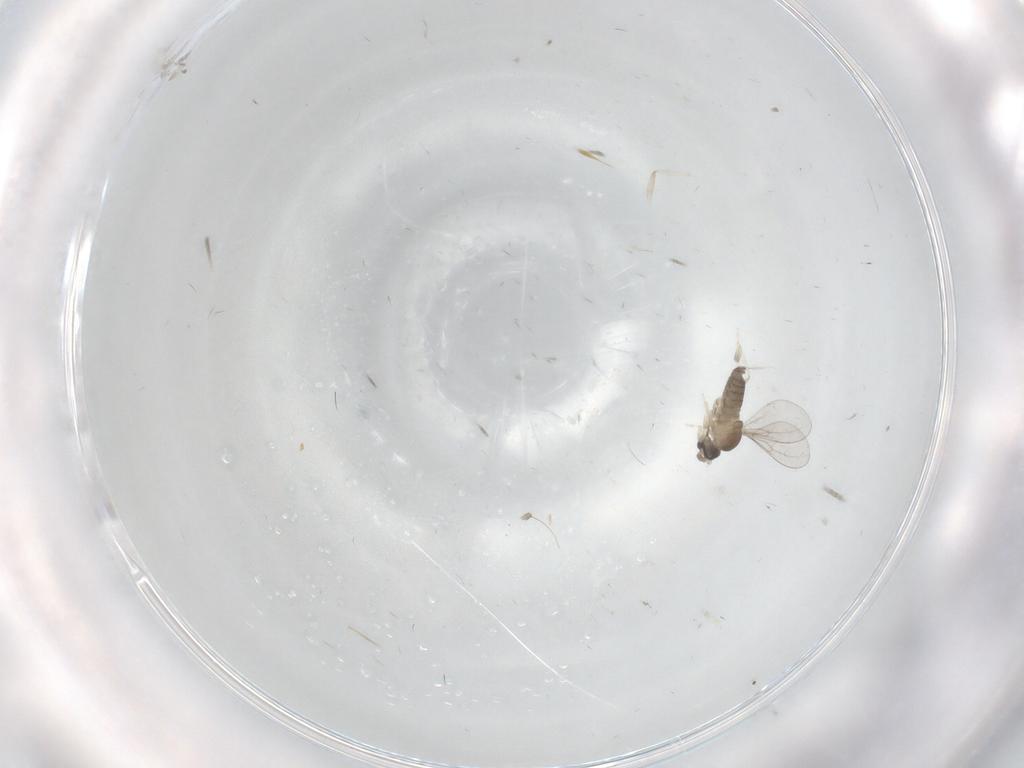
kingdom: Animalia
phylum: Arthropoda
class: Insecta
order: Diptera
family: Cecidomyiidae
